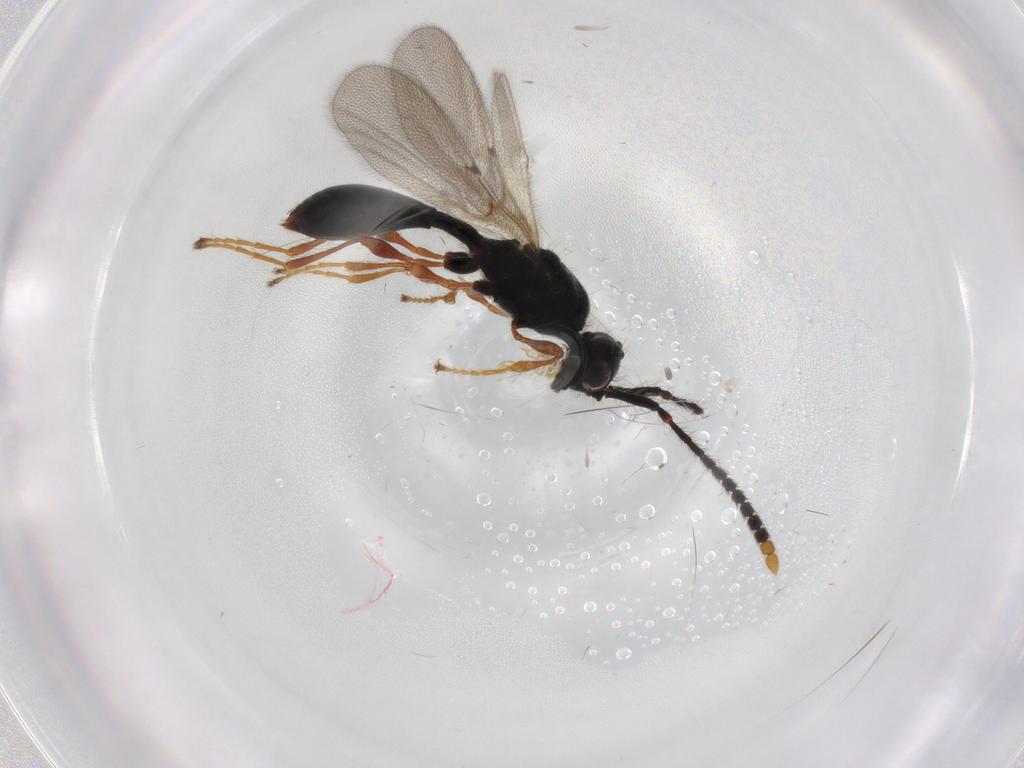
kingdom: Animalia
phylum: Arthropoda
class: Insecta
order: Hymenoptera
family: Diapriidae
